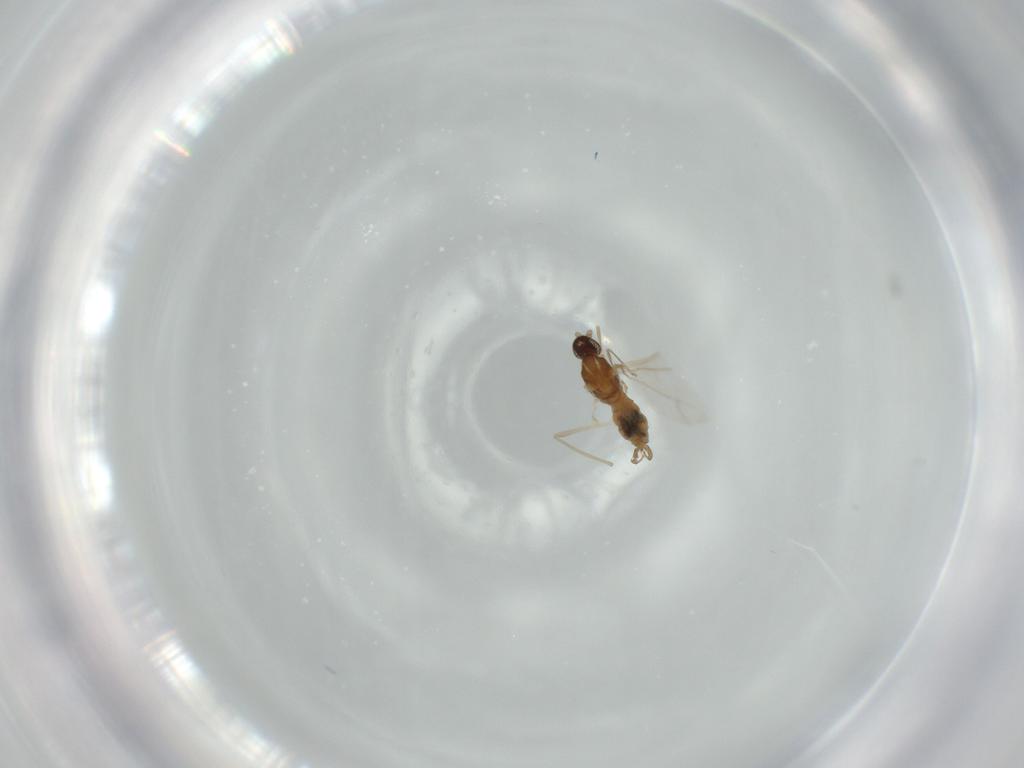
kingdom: Animalia
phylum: Arthropoda
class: Insecta
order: Diptera
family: Cecidomyiidae
